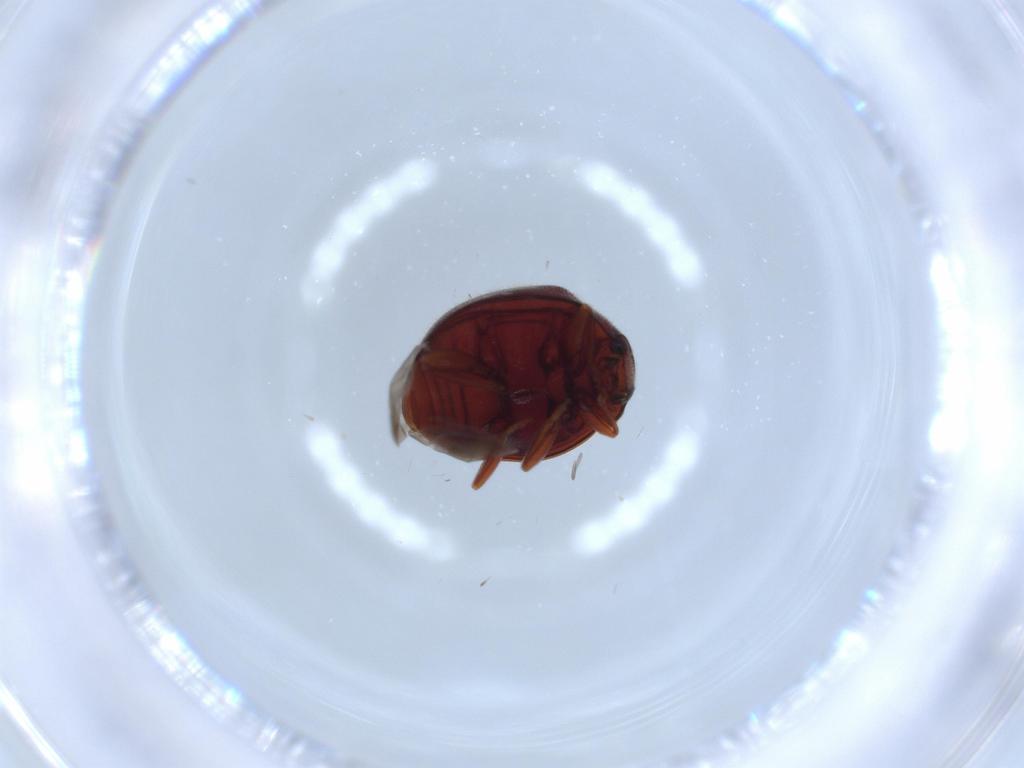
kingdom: Animalia
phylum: Arthropoda
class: Insecta
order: Coleoptera
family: Coccinellidae
